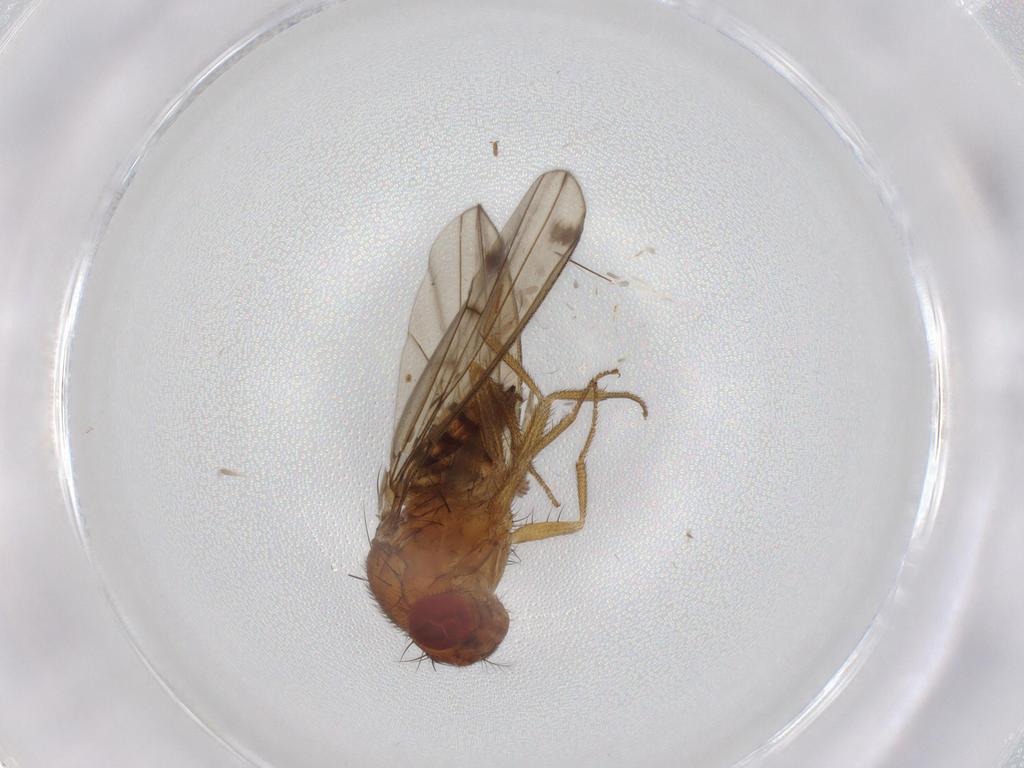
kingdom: Animalia
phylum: Arthropoda
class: Insecta
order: Diptera
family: Drosophilidae
